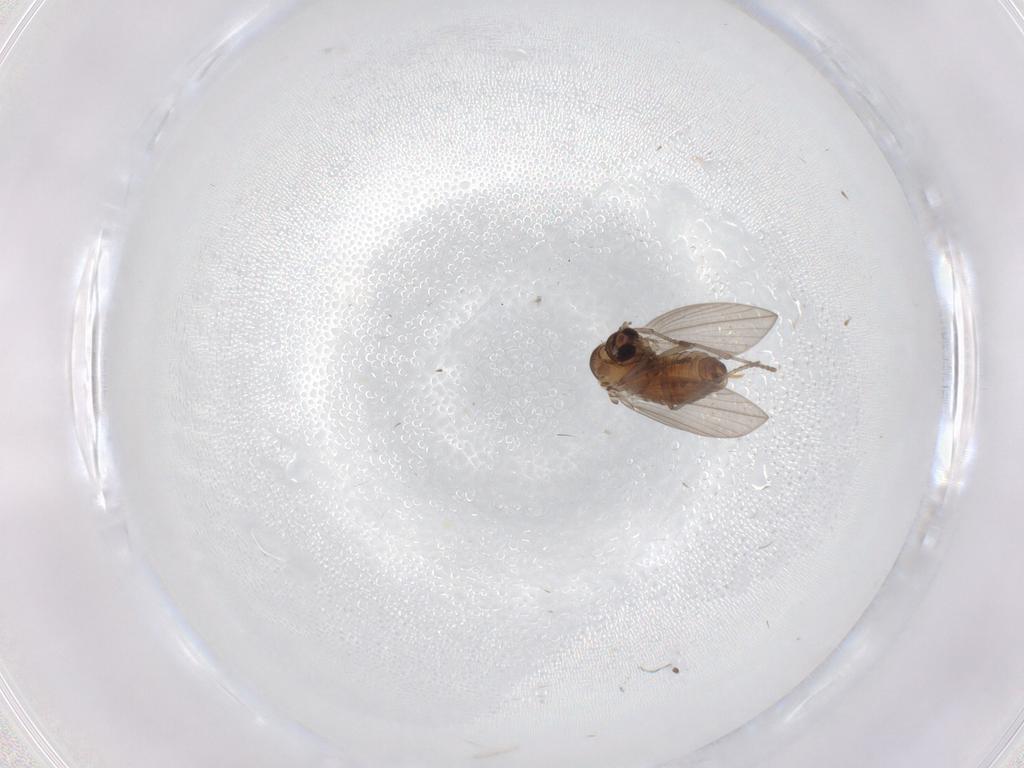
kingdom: Animalia
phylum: Arthropoda
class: Insecta
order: Diptera
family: Psychodidae
